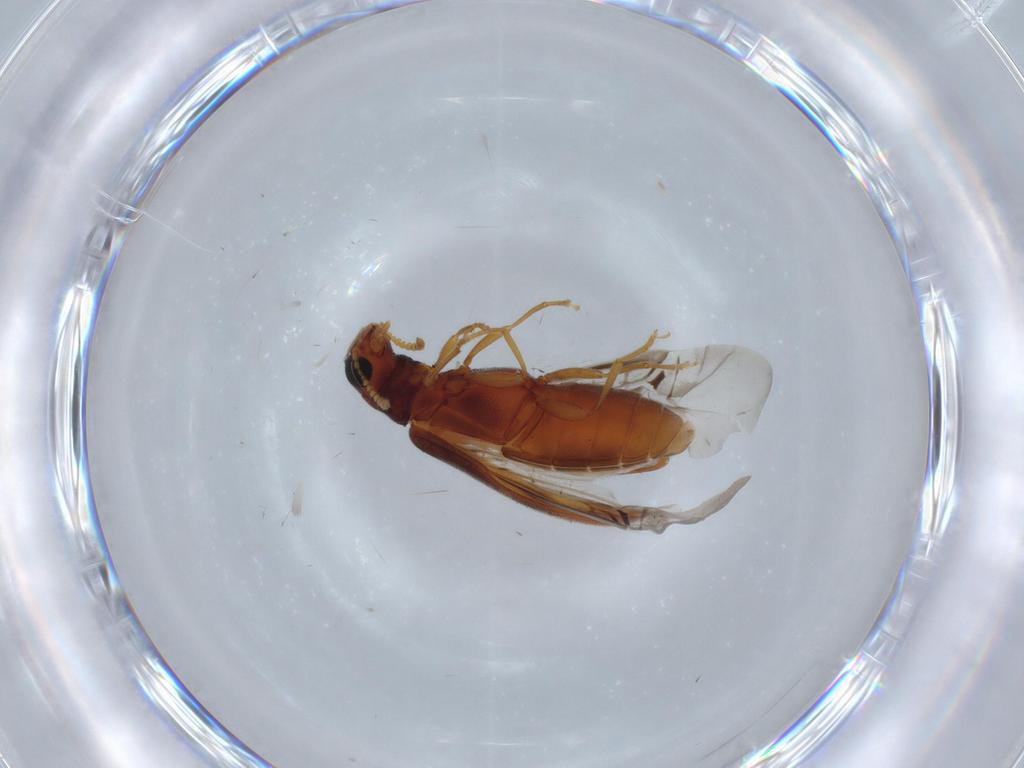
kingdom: Animalia
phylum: Arthropoda
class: Insecta
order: Coleoptera
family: Mycteridae
